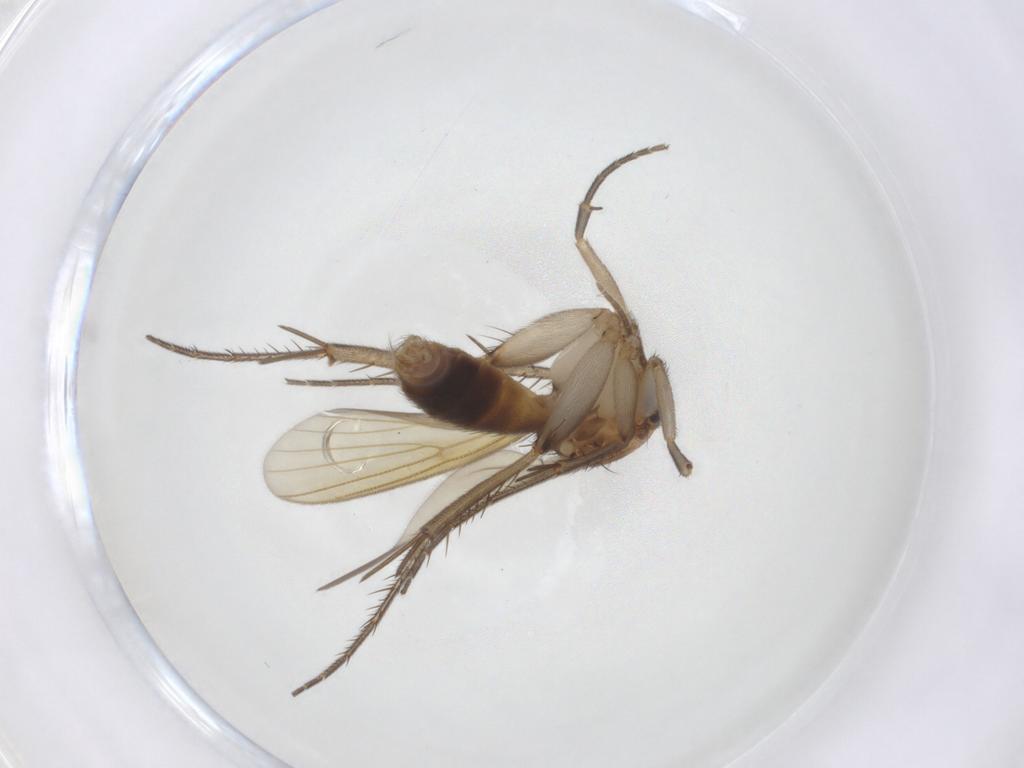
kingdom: Animalia
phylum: Arthropoda
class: Insecta
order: Diptera
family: Mycetophilidae
